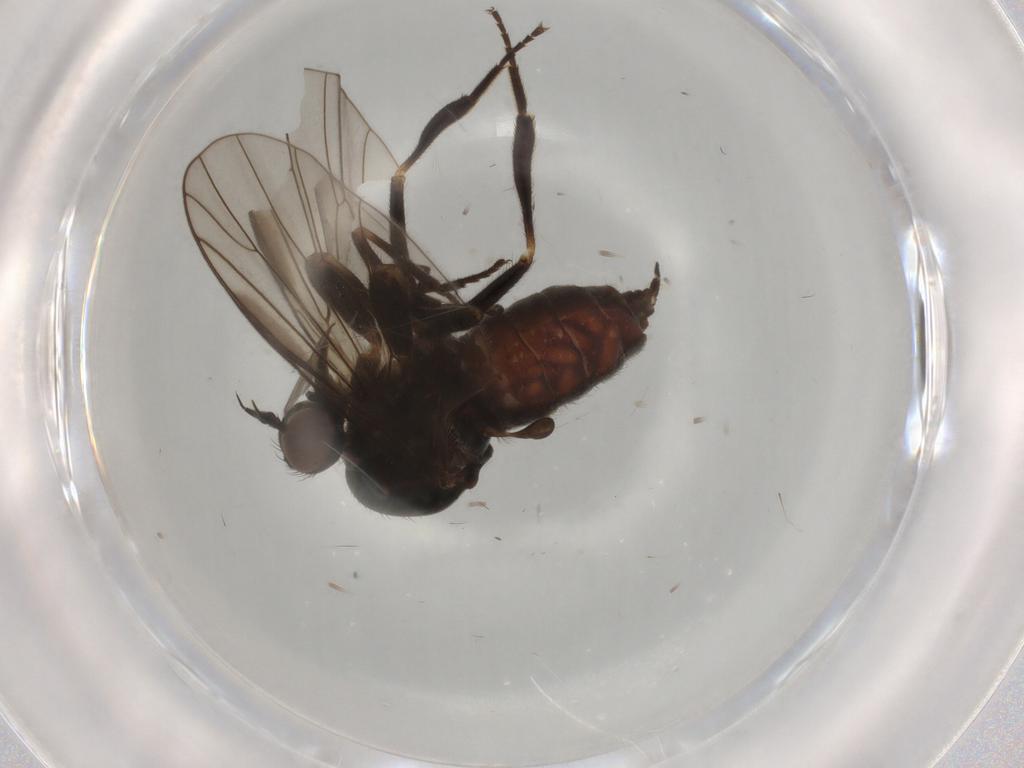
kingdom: Animalia
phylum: Arthropoda
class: Insecta
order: Diptera
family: Empididae
